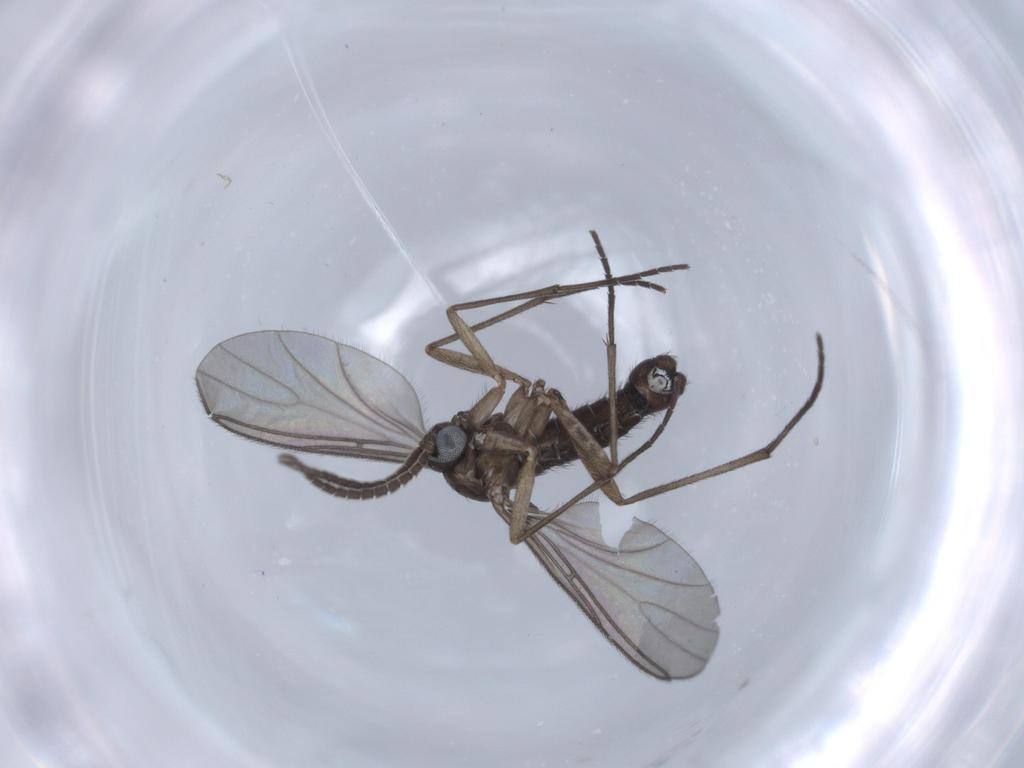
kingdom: Animalia
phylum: Arthropoda
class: Insecta
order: Diptera
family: Sciaridae
